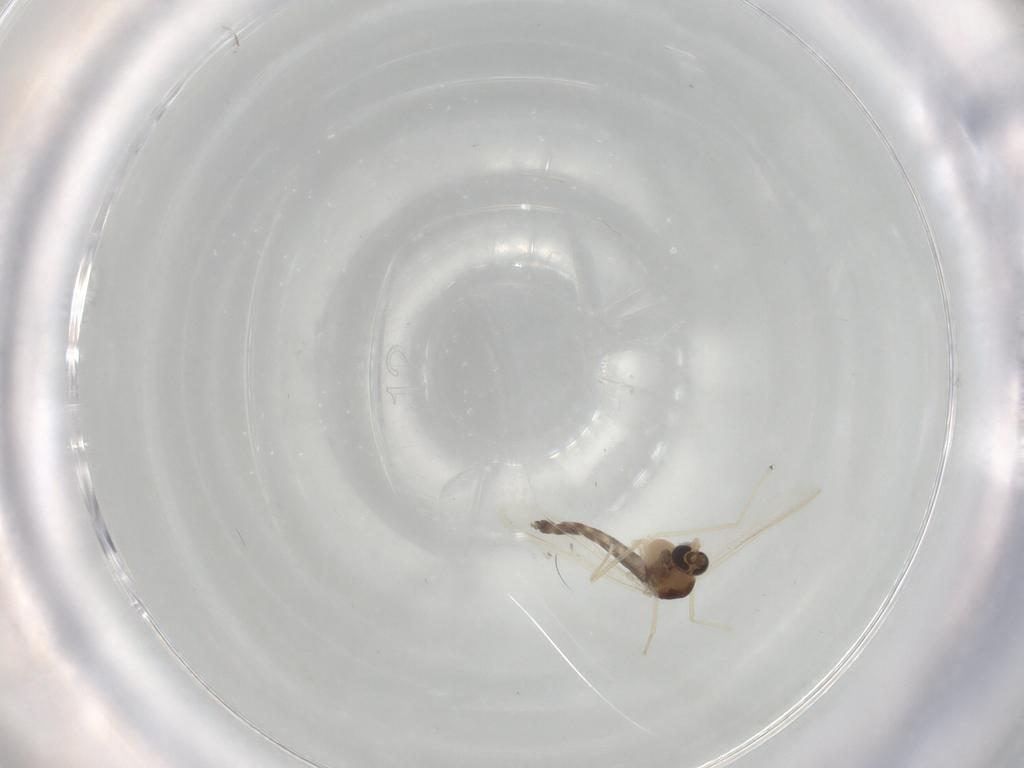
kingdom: Animalia
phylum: Arthropoda
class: Insecta
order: Diptera
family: Chironomidae
